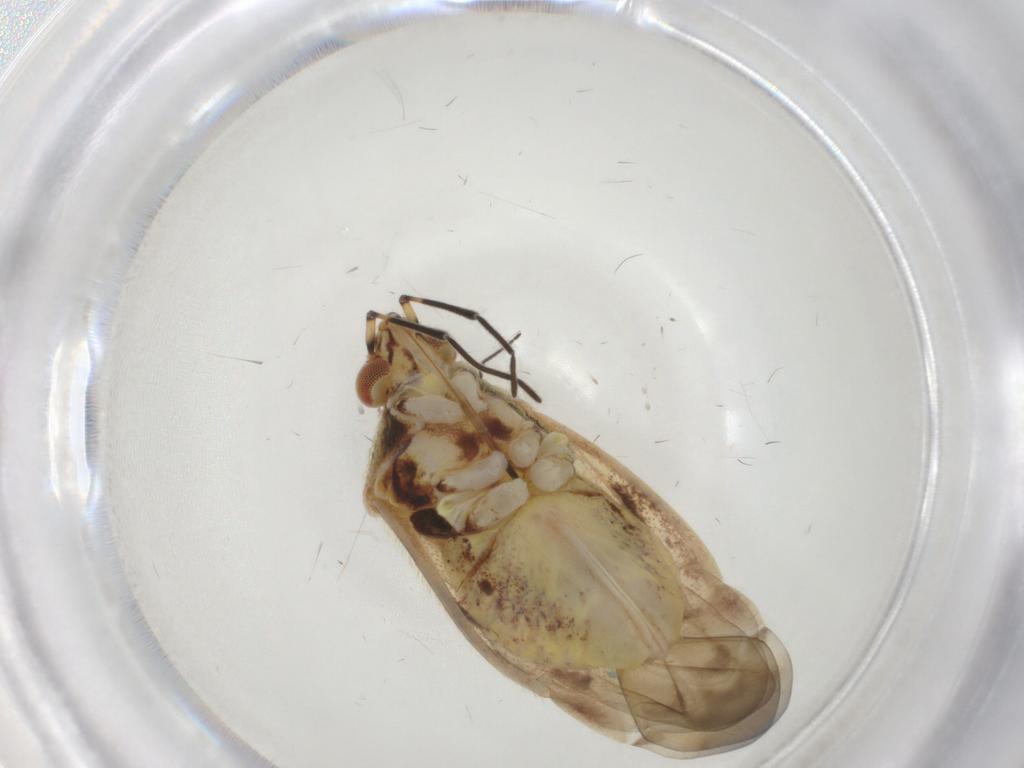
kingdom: Animalia
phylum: Arthropoda
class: Insecta
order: Hemiptera
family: Miridae
